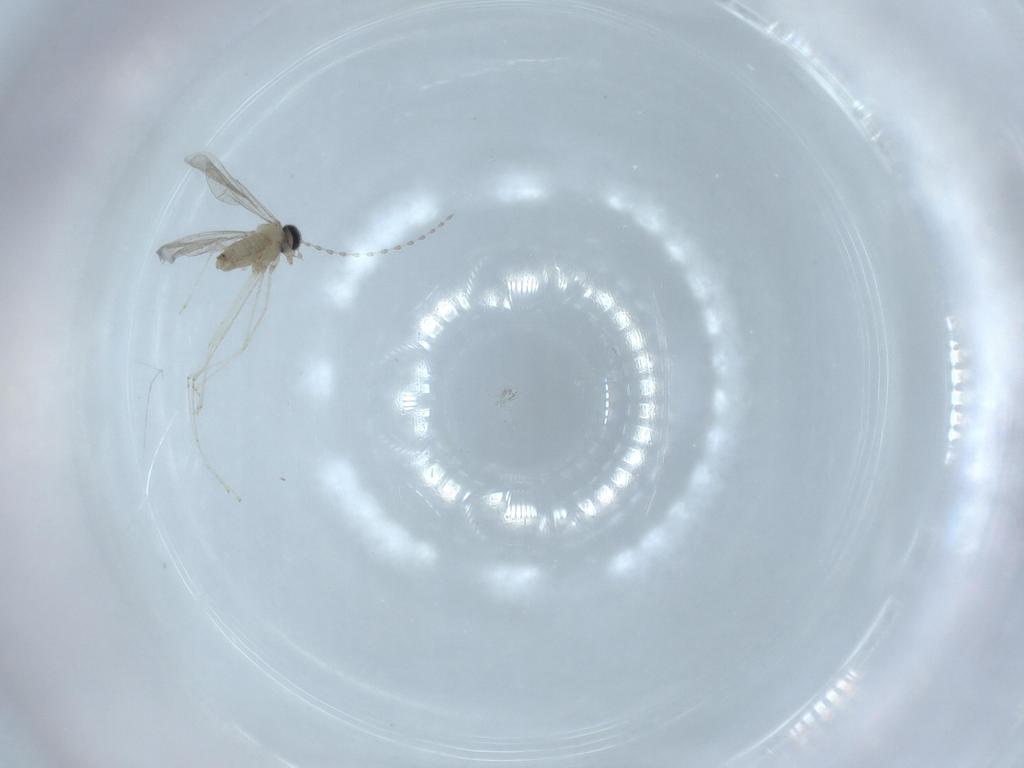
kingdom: Animalia
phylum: Arthropoda
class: Insecta
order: Diptera
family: Cecidomyiidae
